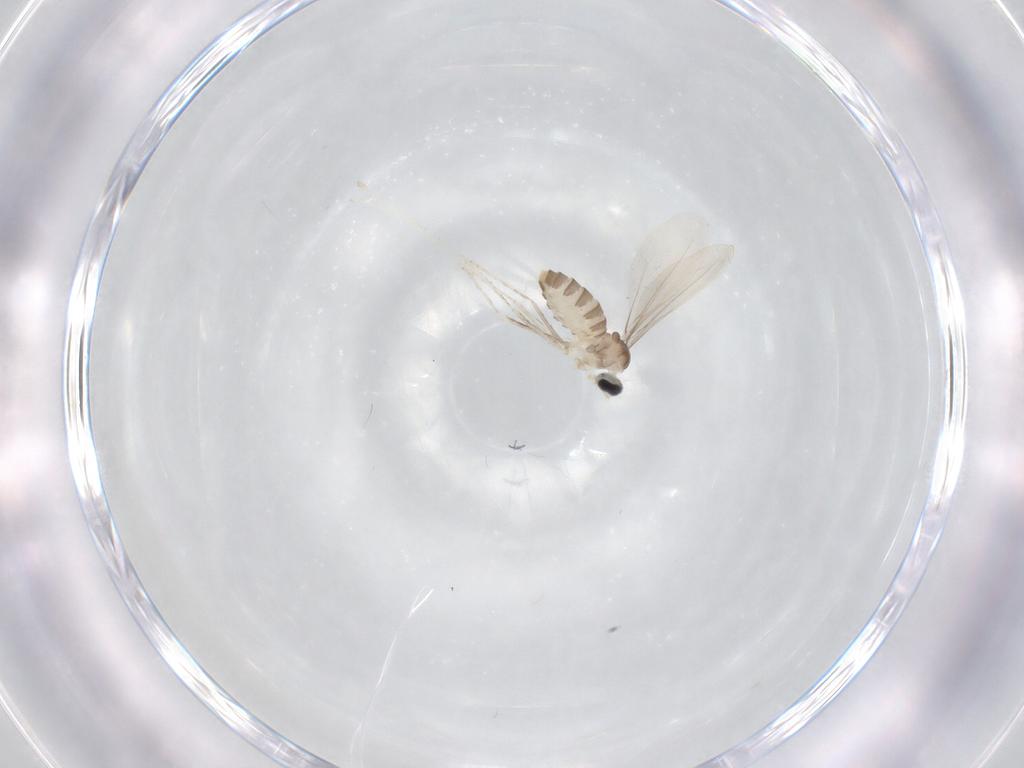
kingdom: Animalia
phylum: Arthropoda
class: Insecta
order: Diptera
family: Cecidomyiidae
